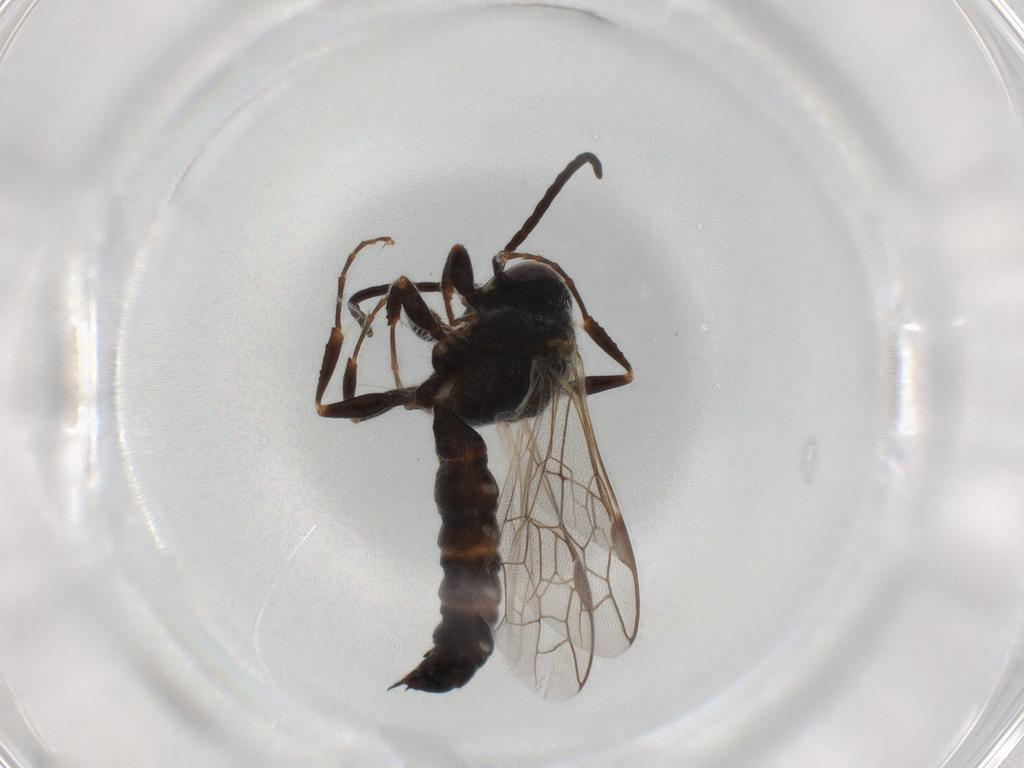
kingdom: Animalia
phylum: Arthropoda
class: Insecta
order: Hymenoptera
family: Thynnidae
